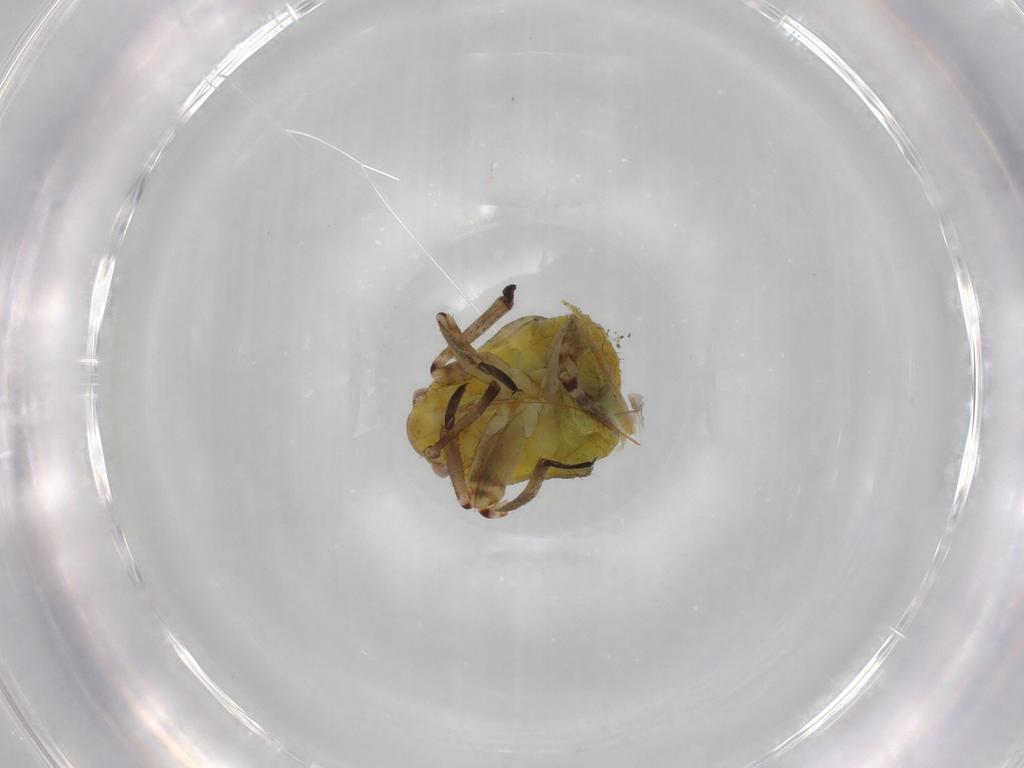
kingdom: Animalia
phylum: Arthropoda
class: Insecta
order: Hemiptera
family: Miridae
